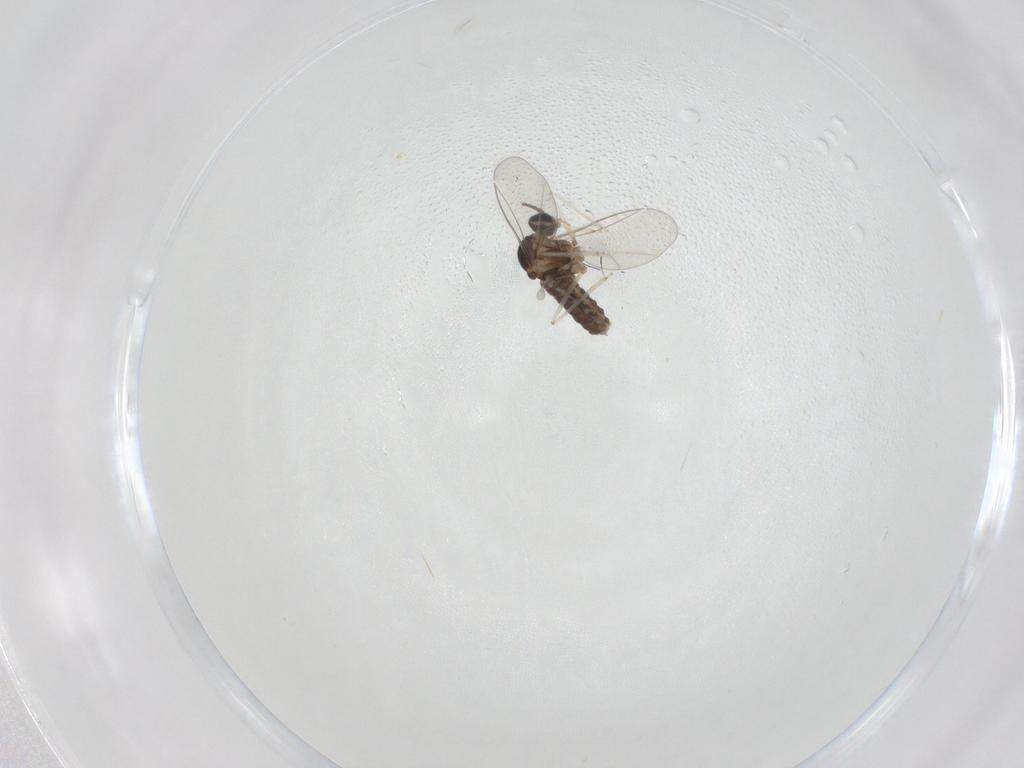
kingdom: Animalia
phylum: Arthropoda
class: Insecta
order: Diptera
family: Cecidomyiidae
